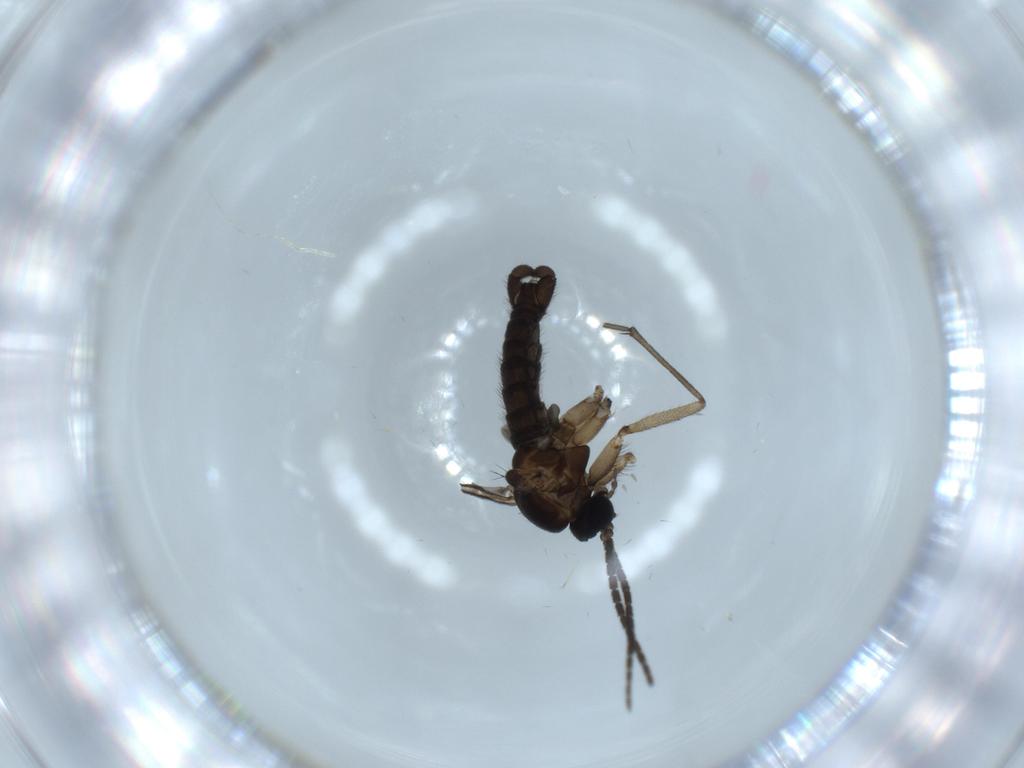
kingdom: Animalia
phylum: Arthropoda
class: Insecta
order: Diptera
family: Sciaridae
